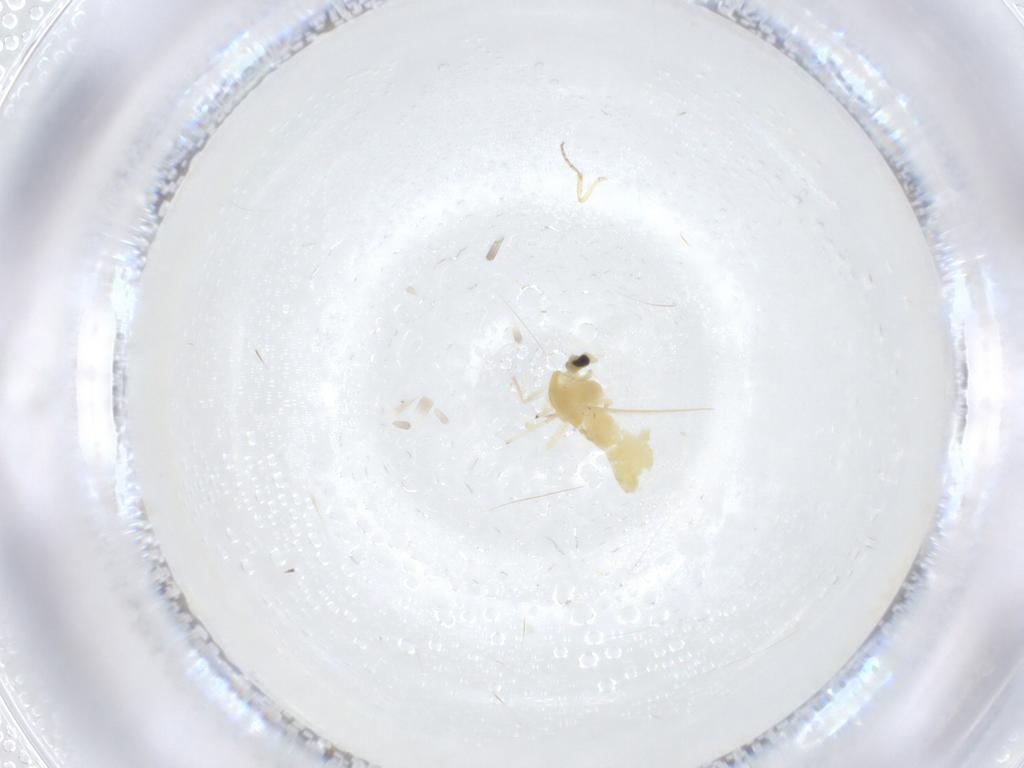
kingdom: Animalia
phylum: Arthropoda
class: Insecta
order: Diptera
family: Chironomidae
